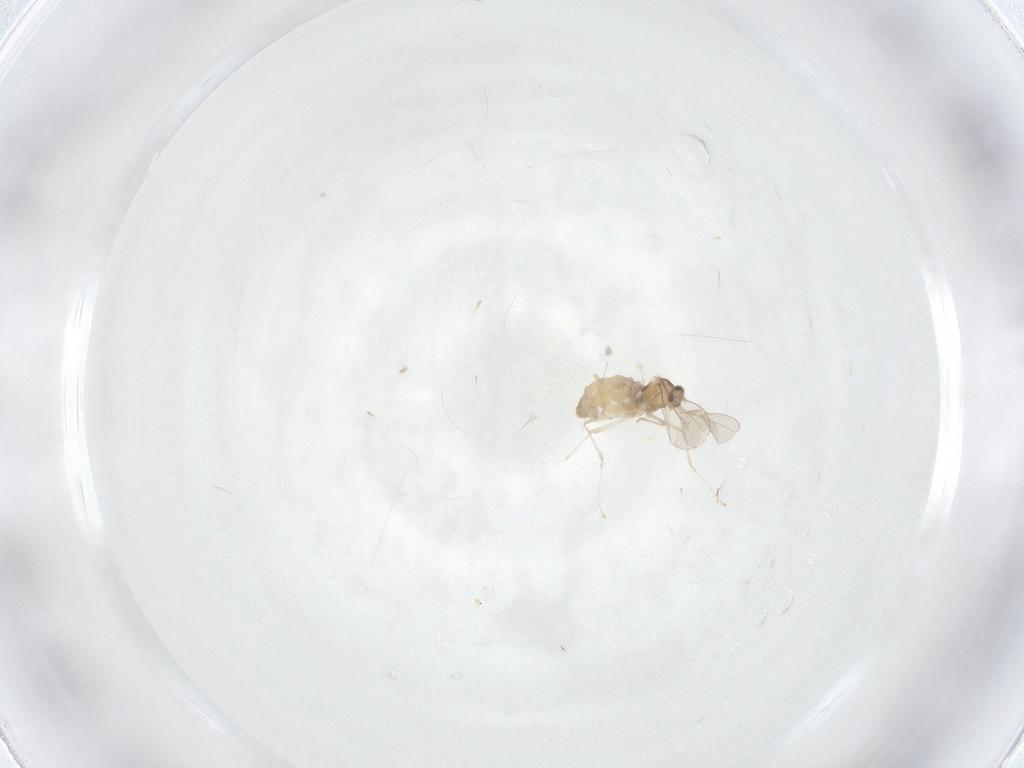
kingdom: Animalia
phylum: Arthropoda
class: Insecta
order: Diptera
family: Cecidomyiidae
